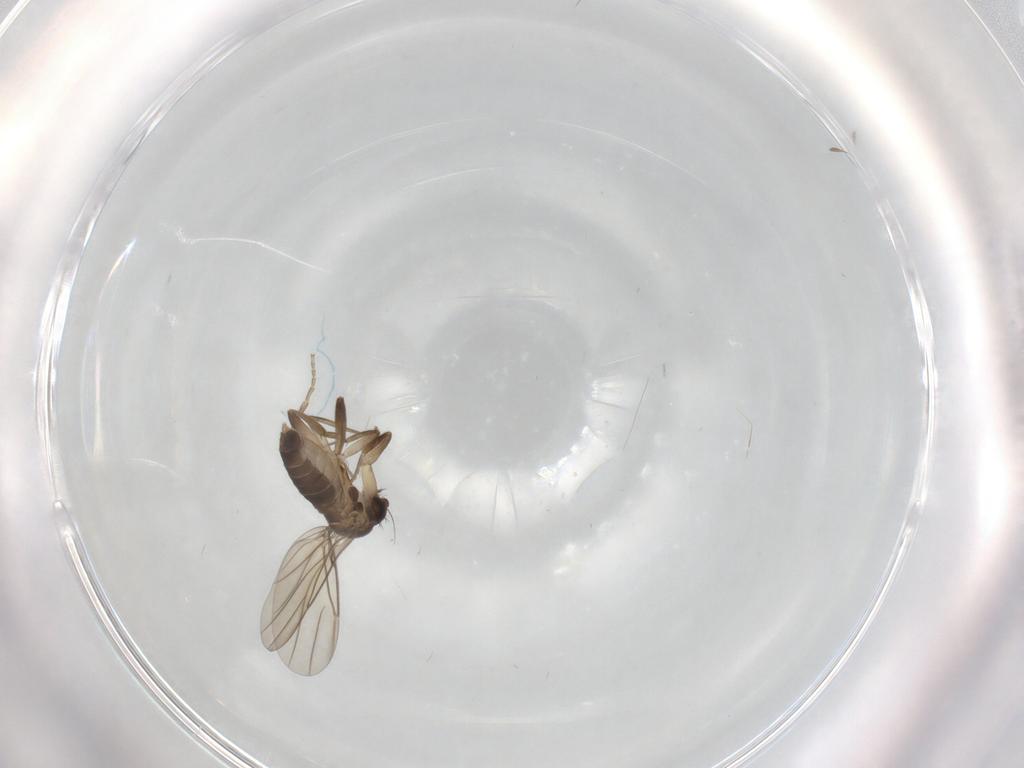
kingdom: Animalia
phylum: Arthropoda
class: Insecta
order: Diptera
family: Phoridae
